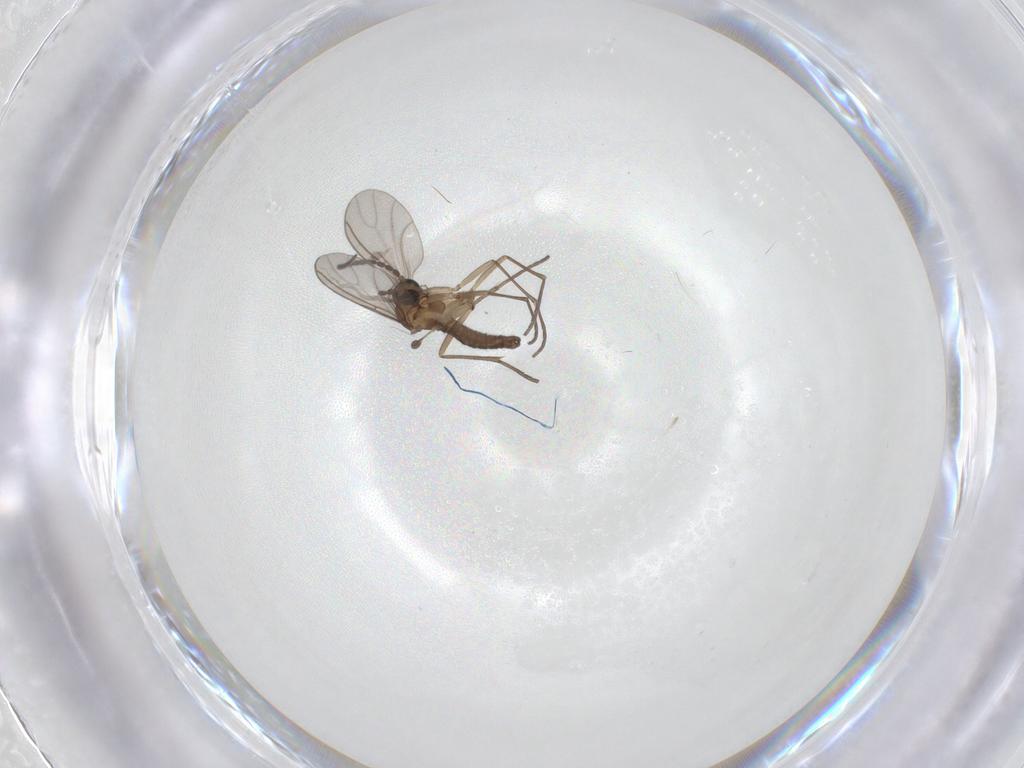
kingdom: Animalia
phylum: Arthropoda
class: Insecta
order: Diptera
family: Sciaridae
